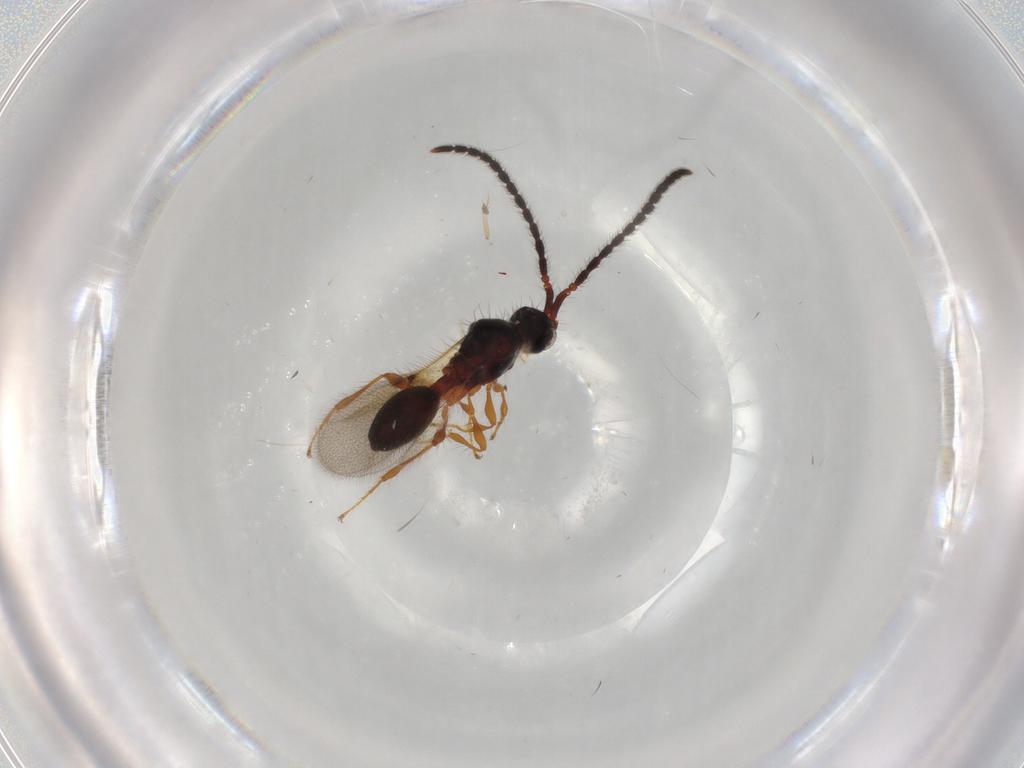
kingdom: Animalia
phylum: Arthropoda
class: Insecta
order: Hymenoptera
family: Diapriidae
